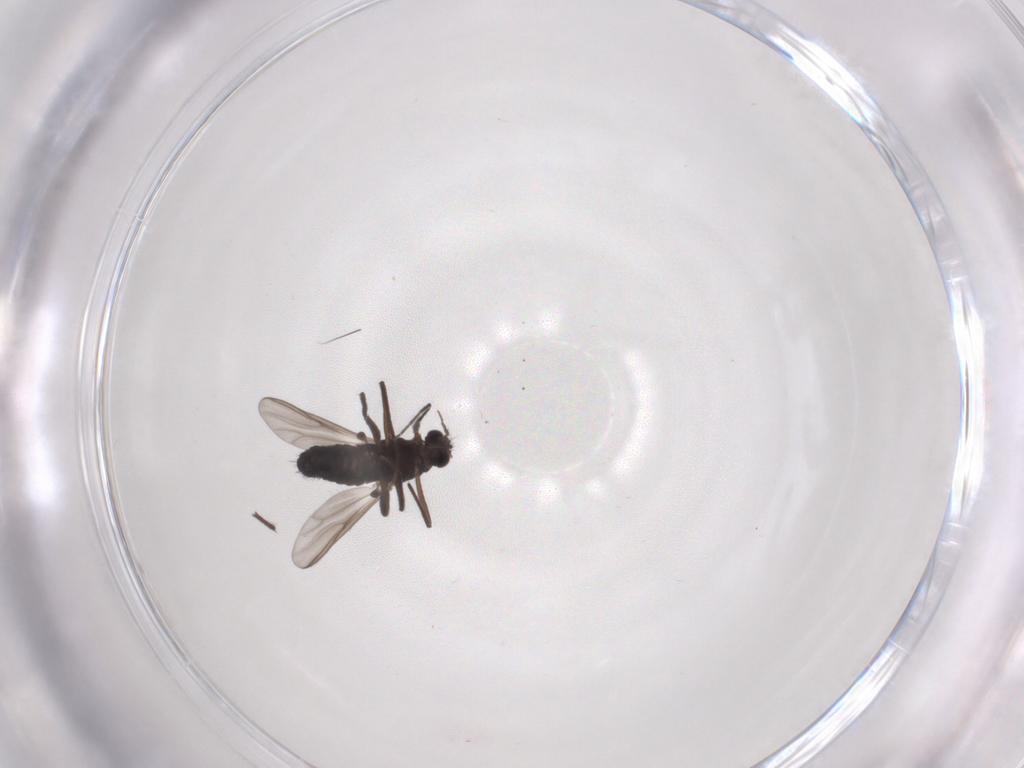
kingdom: Animalia
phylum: Arthropoda
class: Insecta
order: Diptera
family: Chironomidae
